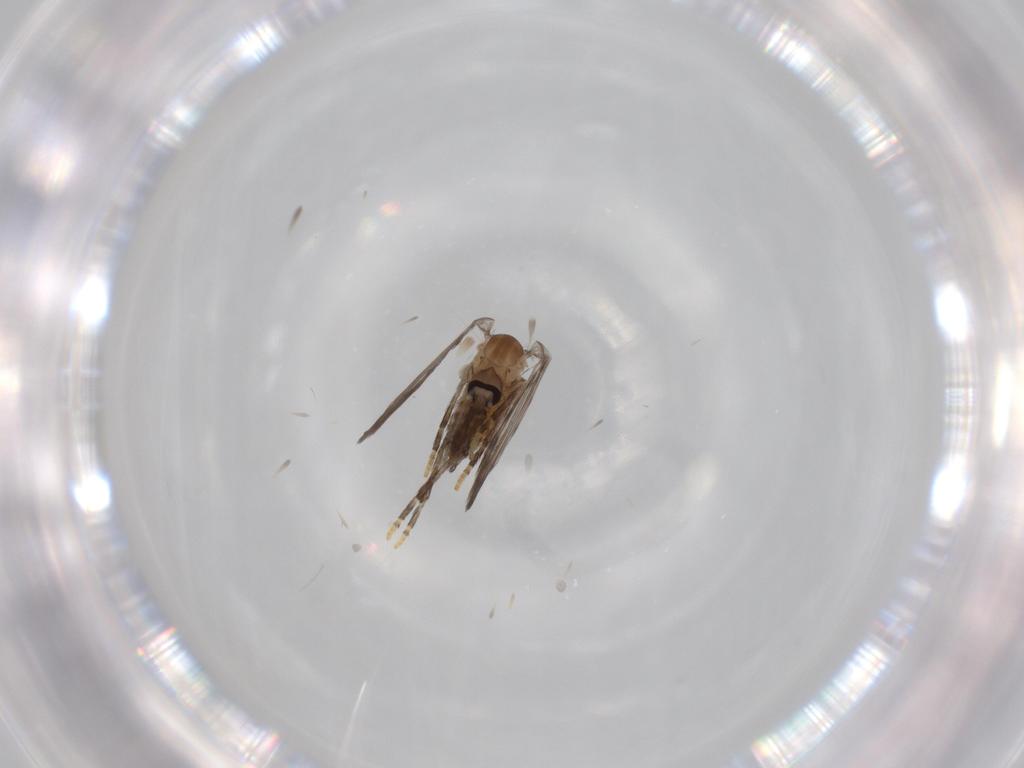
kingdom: Animalia
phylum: Arthropoda
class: Insecta
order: Diptera
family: Psychodidae
